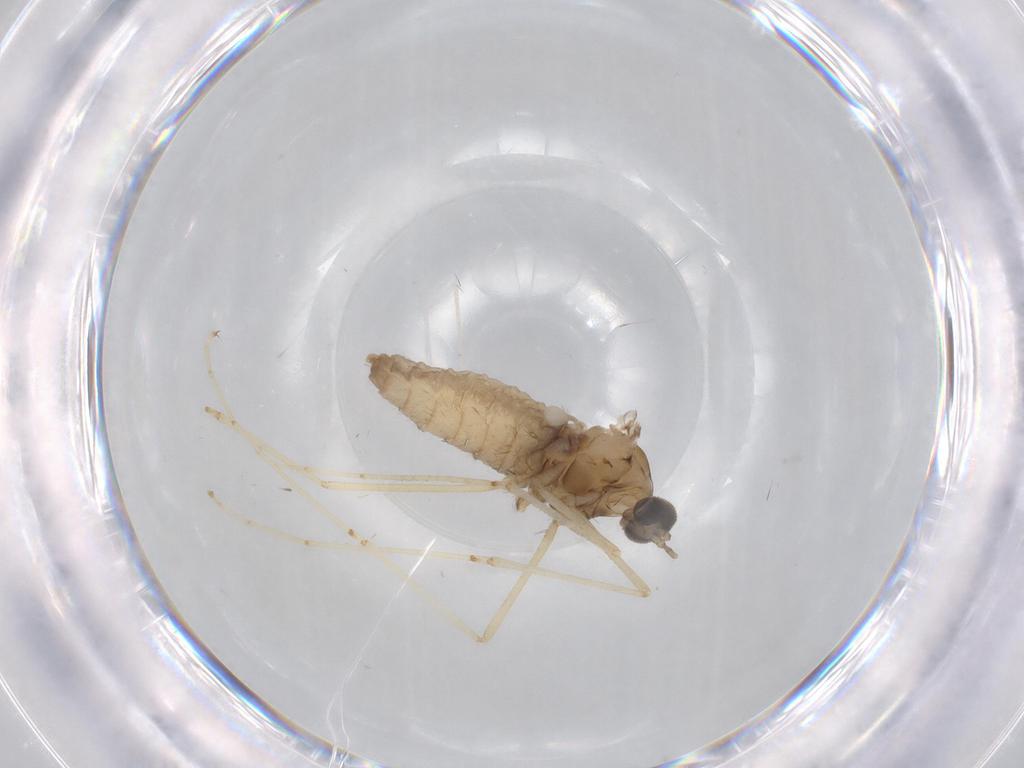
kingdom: Animalia
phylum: Arthropoda
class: Insecta
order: Diptera
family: Cecidomyiidae
